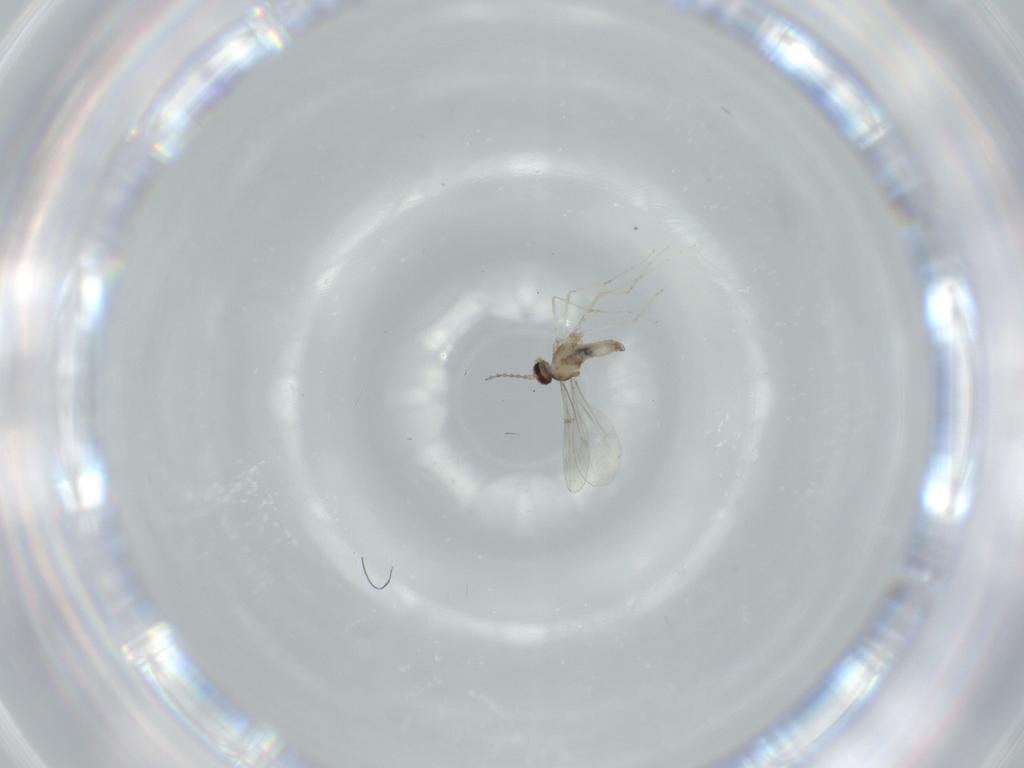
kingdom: Animalia
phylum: Arthropoda
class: Insecta
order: Diptera
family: Cecidomyiidae
